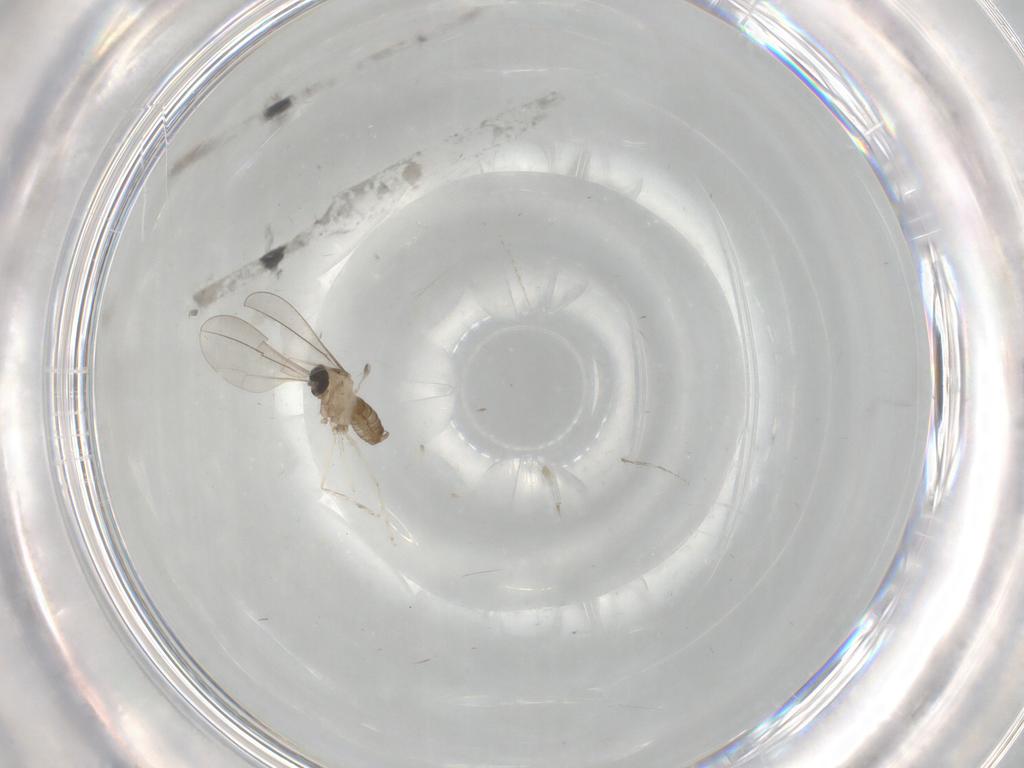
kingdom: Animalia
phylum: Arthropoda
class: Insecta
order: Diptera
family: Cecidomyiidae
